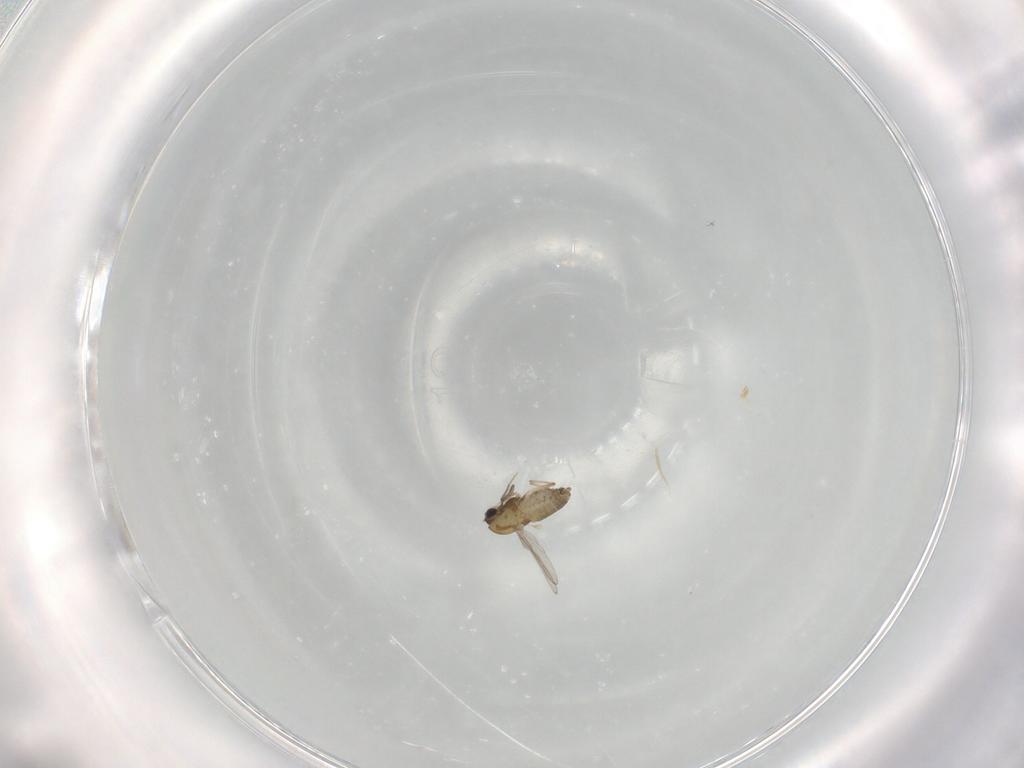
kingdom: Animalia
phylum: Arthropoda
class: Insecta
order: Diptera
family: Chironomidae
